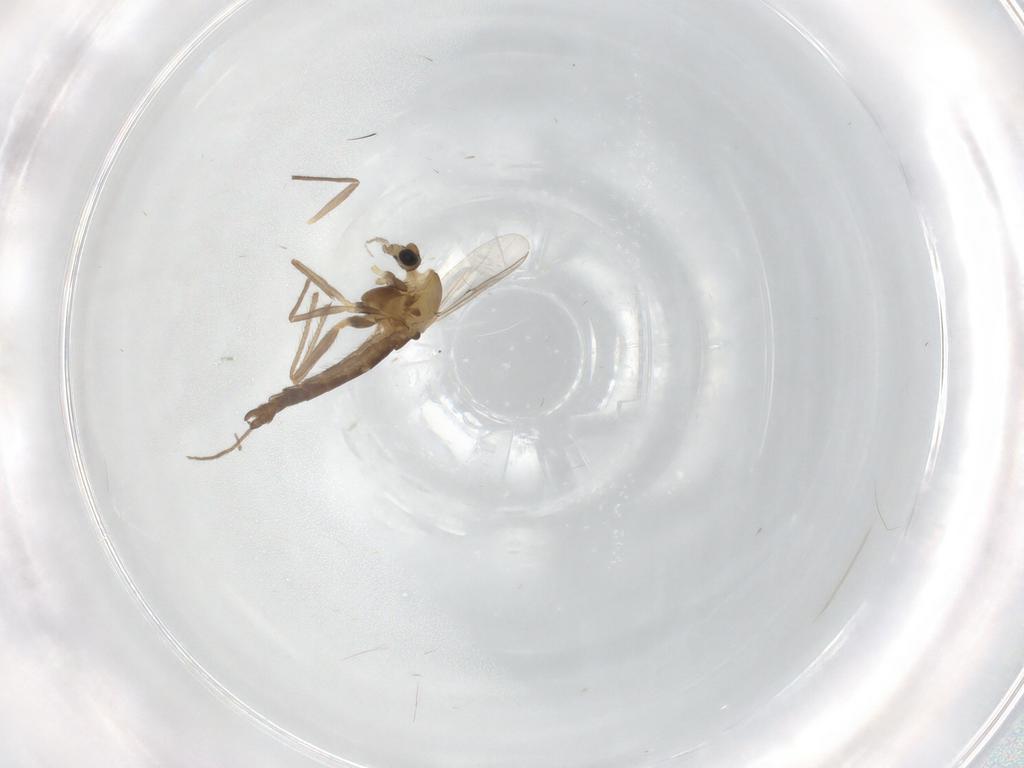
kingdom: Animalia
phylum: Arthropoda
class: Insecta
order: Diptera
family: Chironomidae
